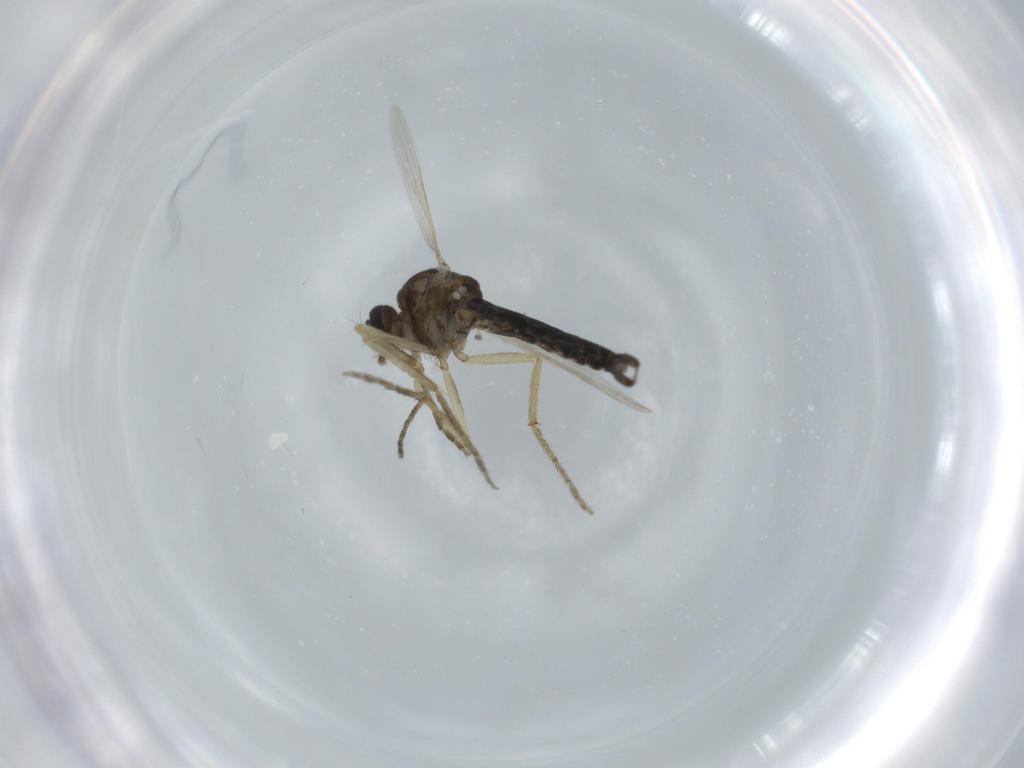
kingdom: Animalia
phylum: Arthropoda
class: Insecta
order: Diptera
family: Ceratopogonidae
